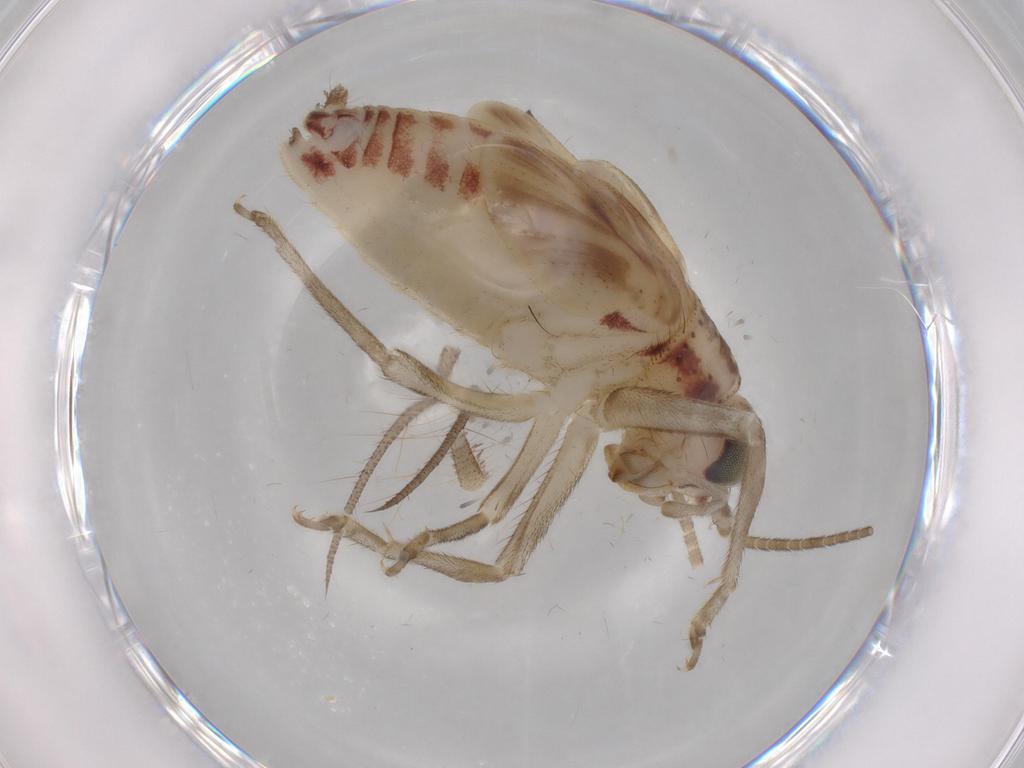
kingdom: Animalia
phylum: Arthropoda
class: Insecta
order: Orthoptera
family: Trigonidiidae
